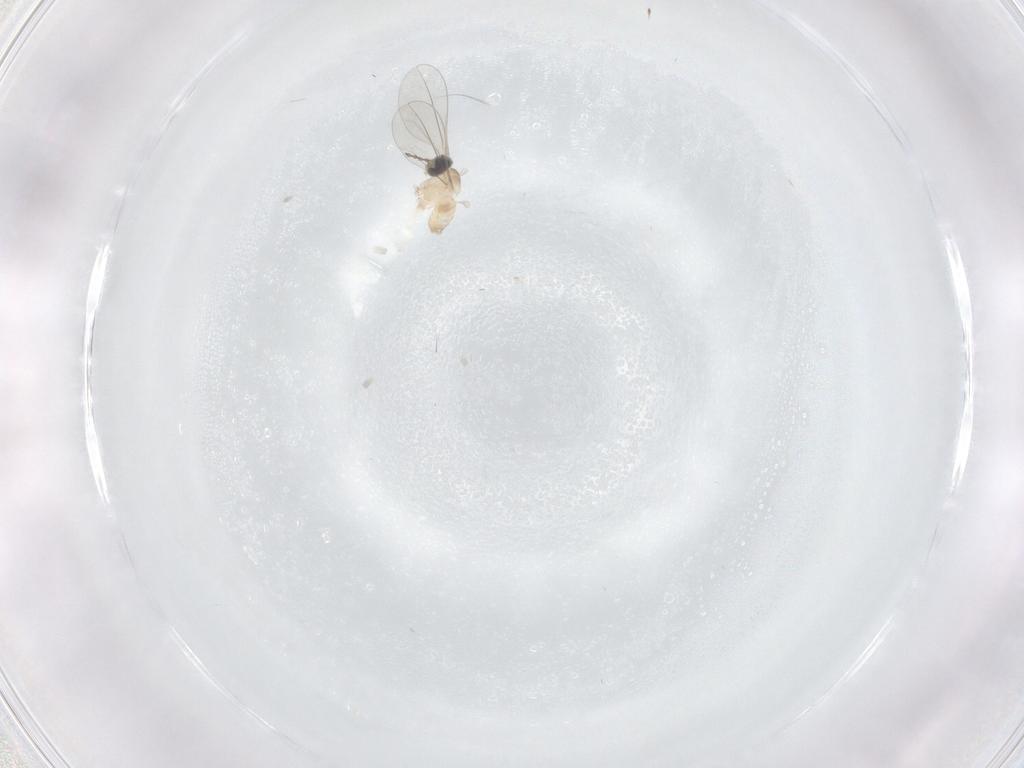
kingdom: Animalia
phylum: Arthropoda
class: Insecta
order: Diptera
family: Cecidomyiidae
